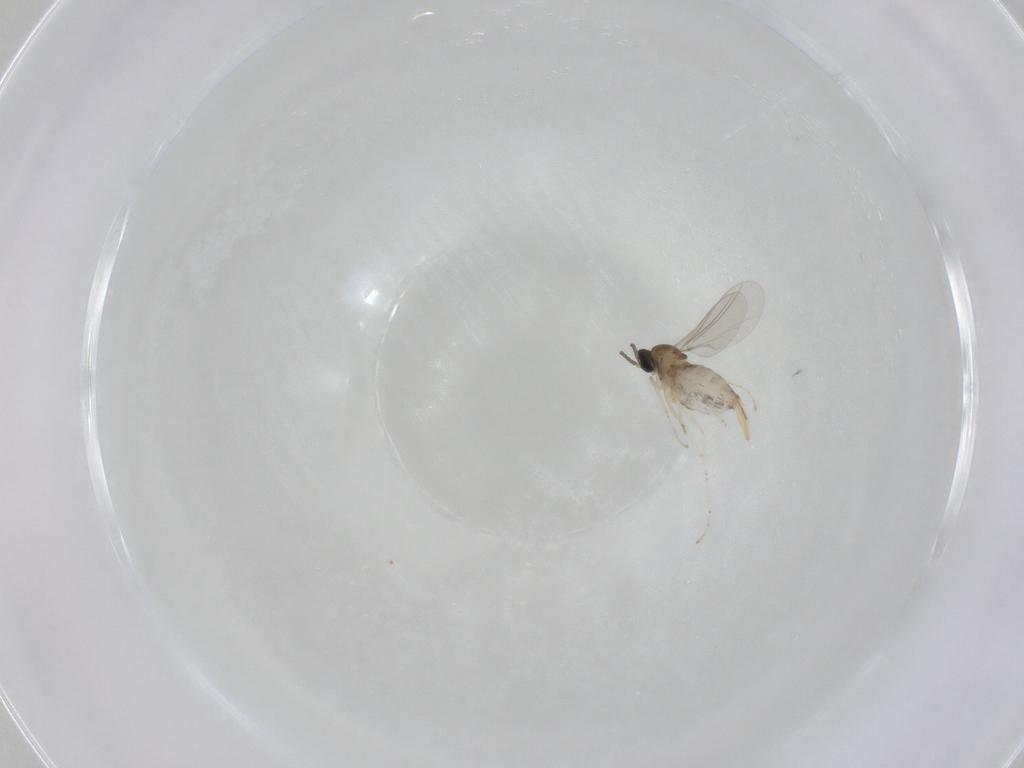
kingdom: Animalia
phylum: Arthropoda
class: Insecta
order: Diptera
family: Cecidomyiidae
